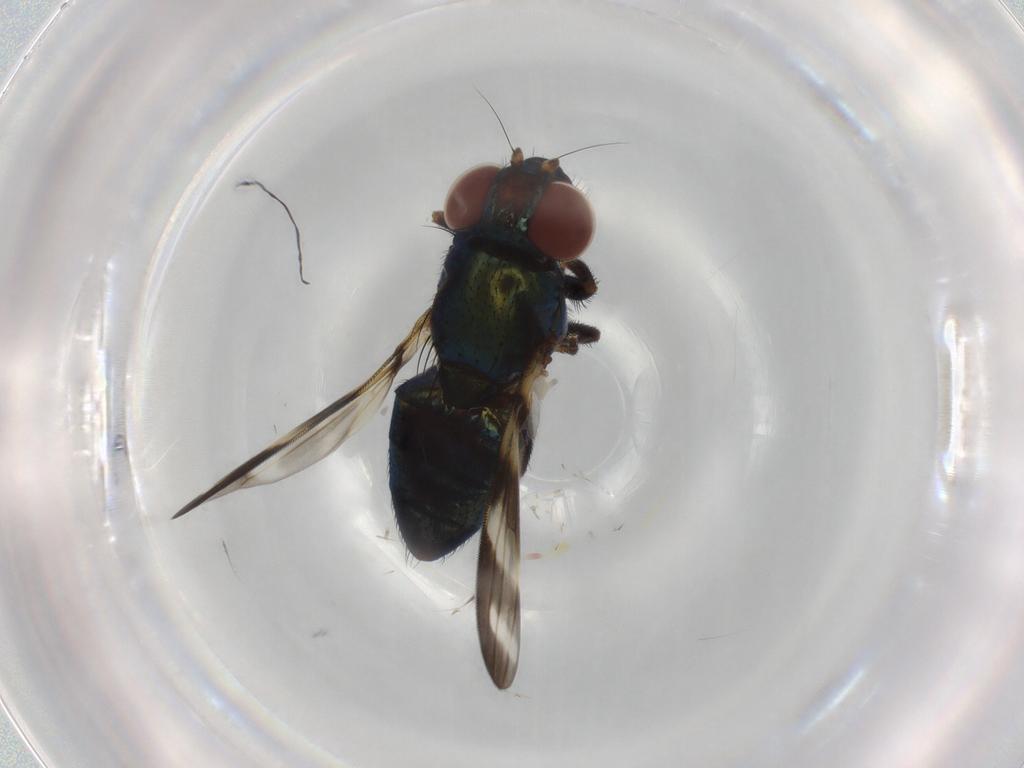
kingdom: Animalia
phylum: Arthropoda
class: Insecta
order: Diptera
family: Ulidiidae
